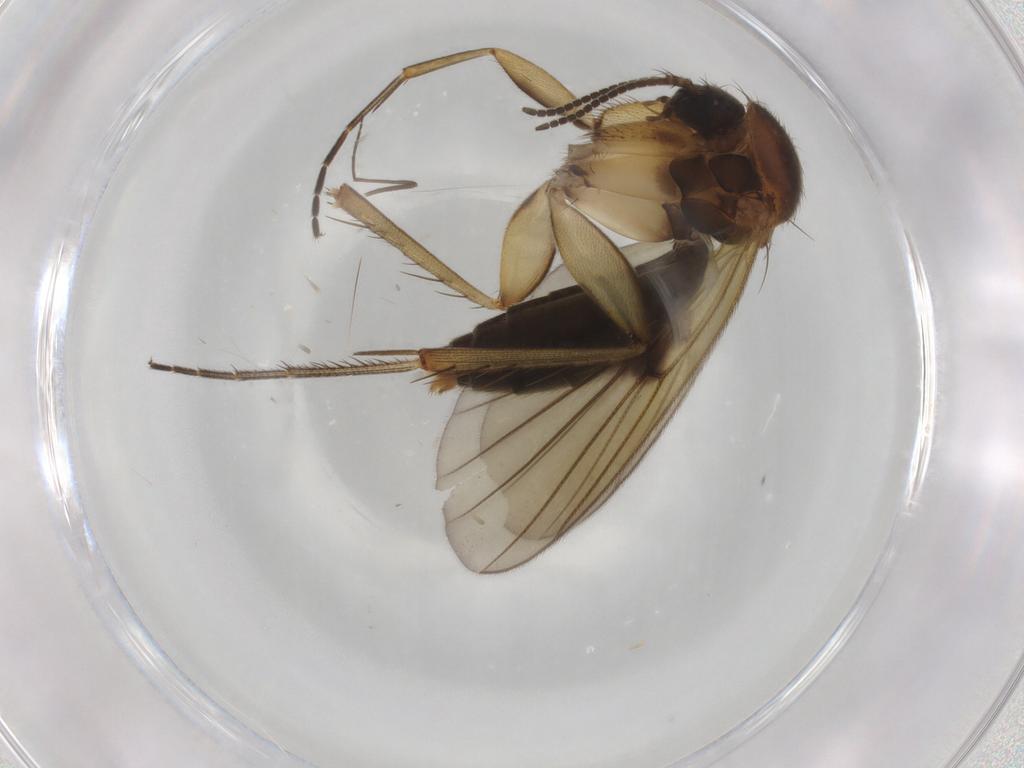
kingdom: Animalia
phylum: Arthropoda
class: Insecta
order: Diptera
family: Chironomidae
